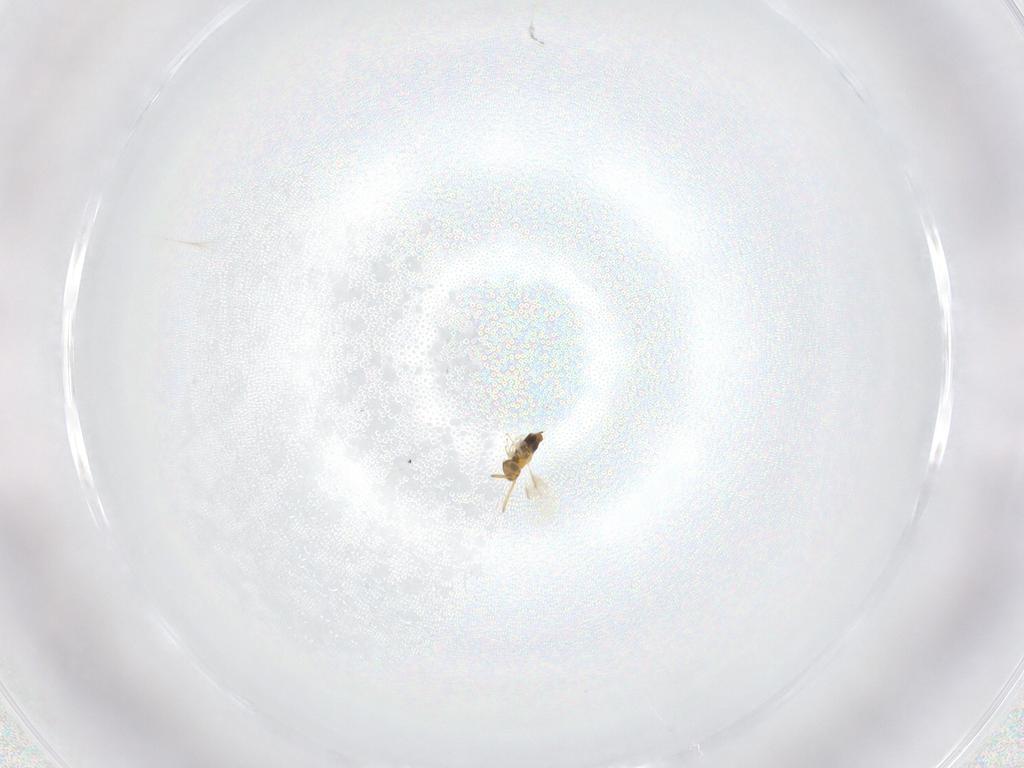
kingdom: Animalia
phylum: Arthropoda
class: Insecta
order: Hymenoptera
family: Aphelinidae
